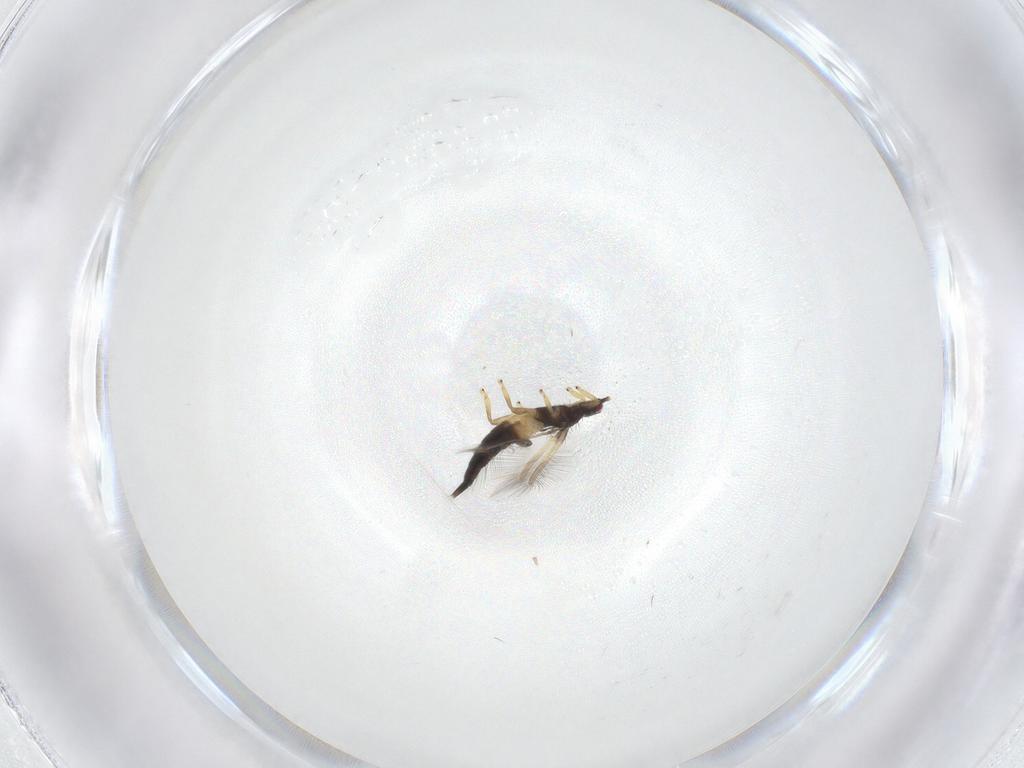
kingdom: Animalia
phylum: Arthropoda
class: Insecta
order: Thysanoptera
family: Phlaeothripidae
